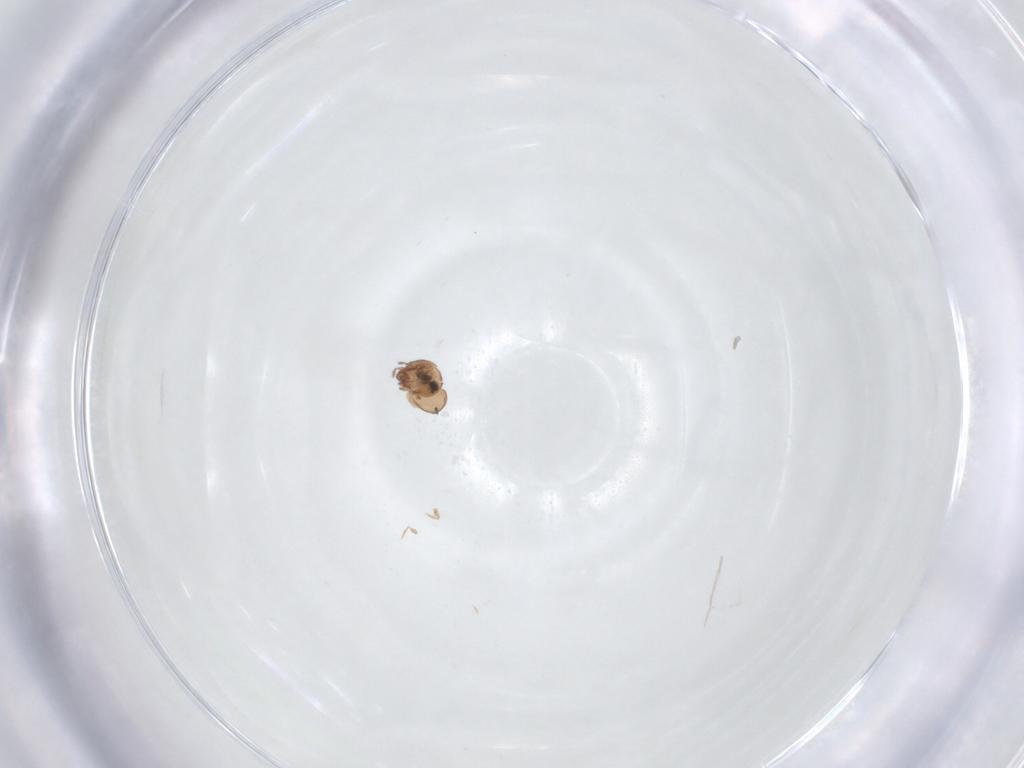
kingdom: Animalia
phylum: Arthropoda
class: Arachnida
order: Sarcoptiformes
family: Scheloribatidae
